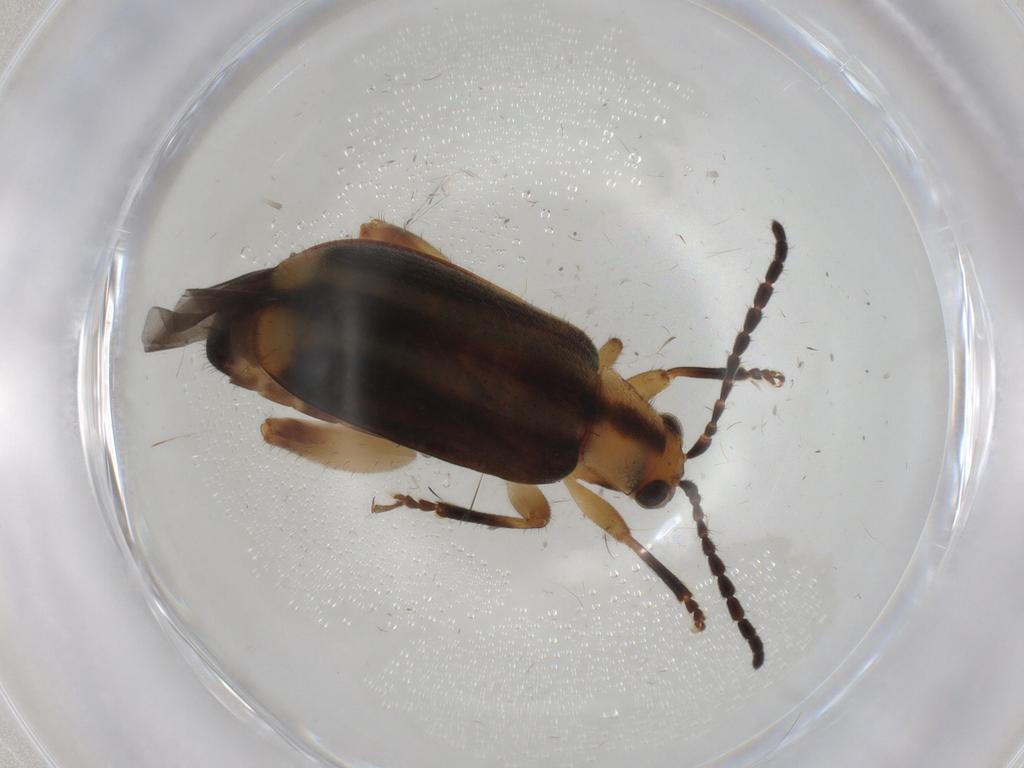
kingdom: Animalia
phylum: Arthropoda
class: Insecta
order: Coleoptera
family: Chrysomelidae
